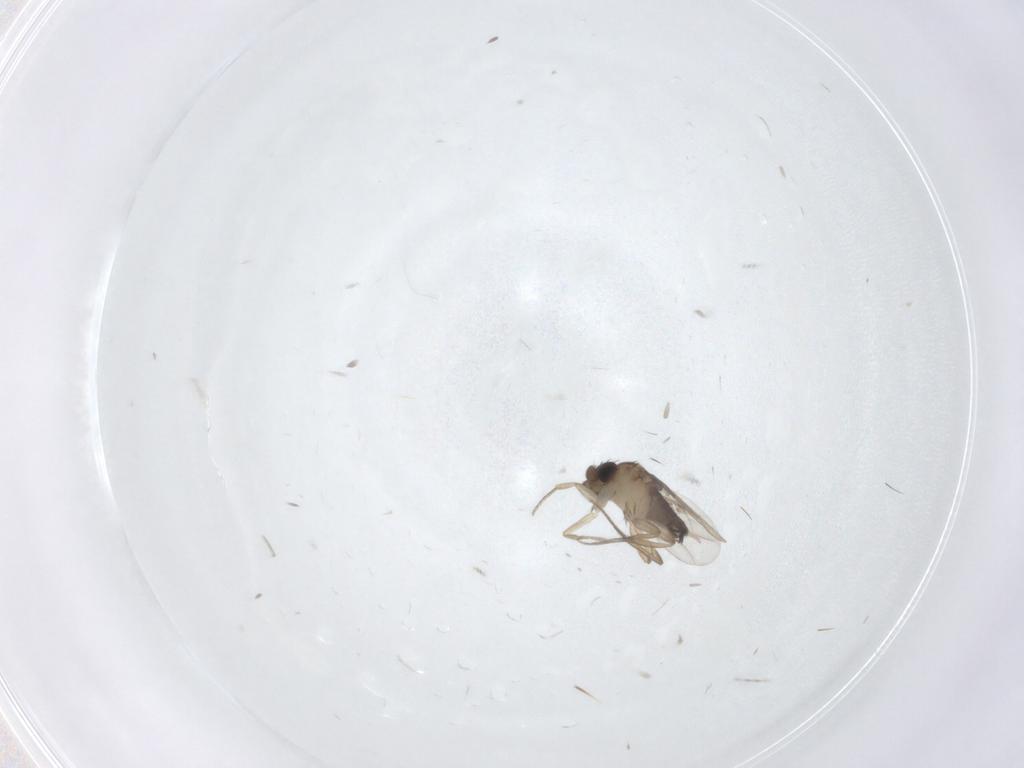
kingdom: Animalia
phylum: Arthropoda
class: Insecta
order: Diptera
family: Phoridae
